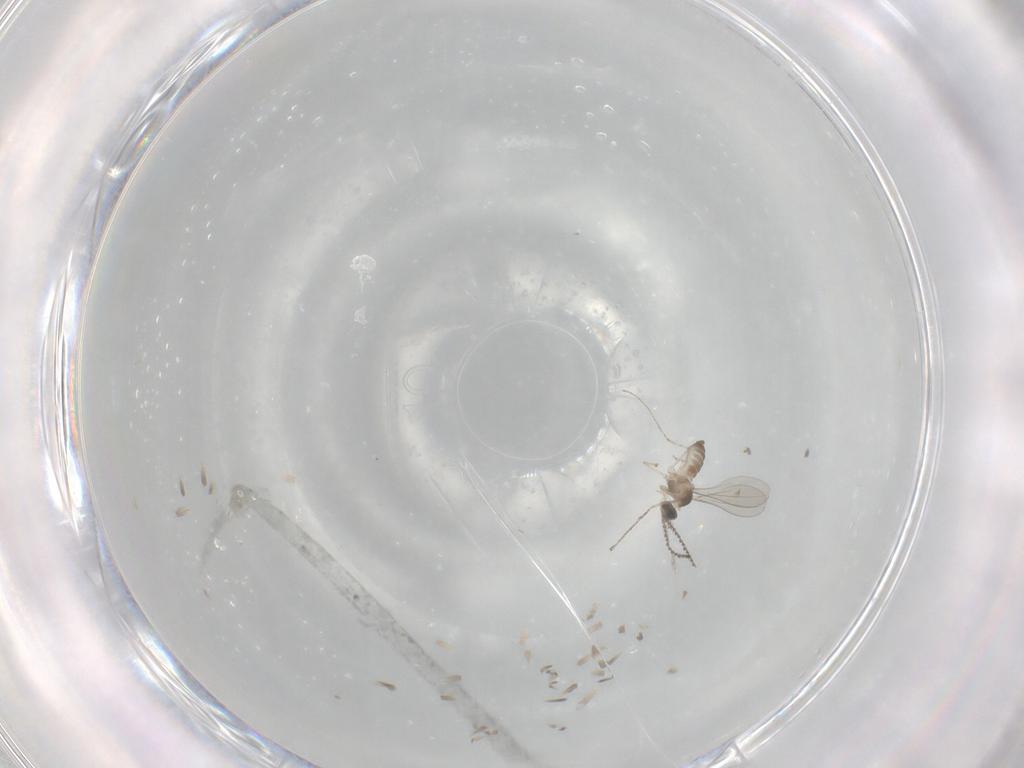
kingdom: Animalia
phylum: Arthropoda
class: Insecta
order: Diptera
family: Cecidomyiidae
